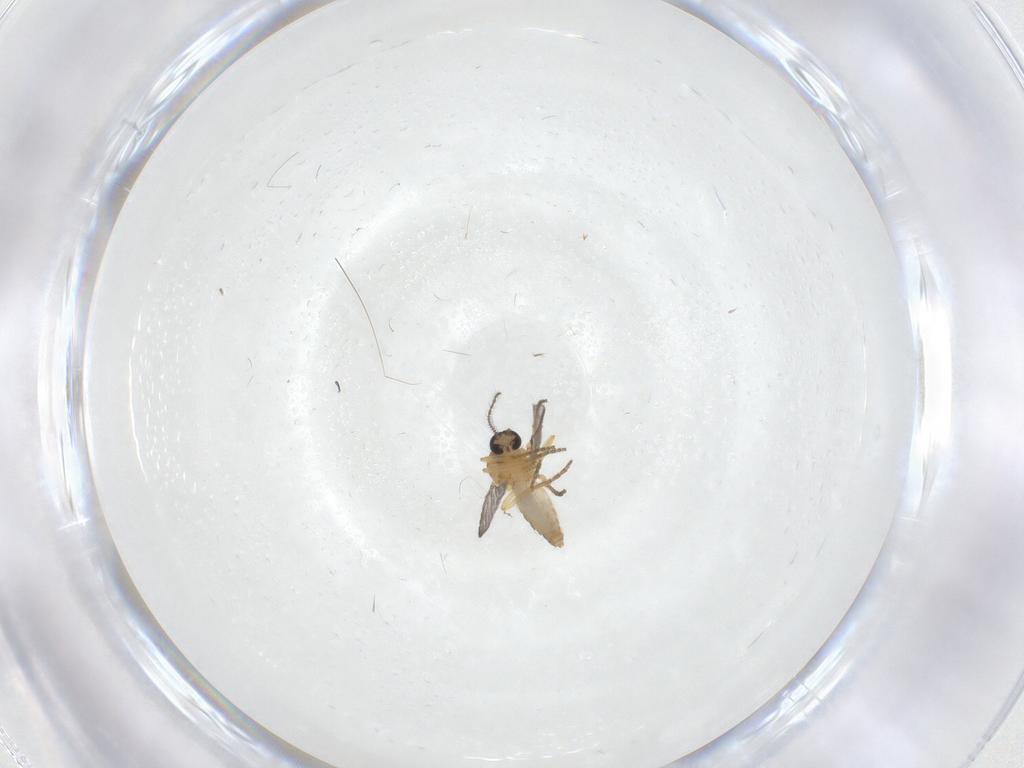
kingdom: Animalia
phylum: Arthropoda
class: Insecta
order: Diptera
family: Ceratopogonidae
